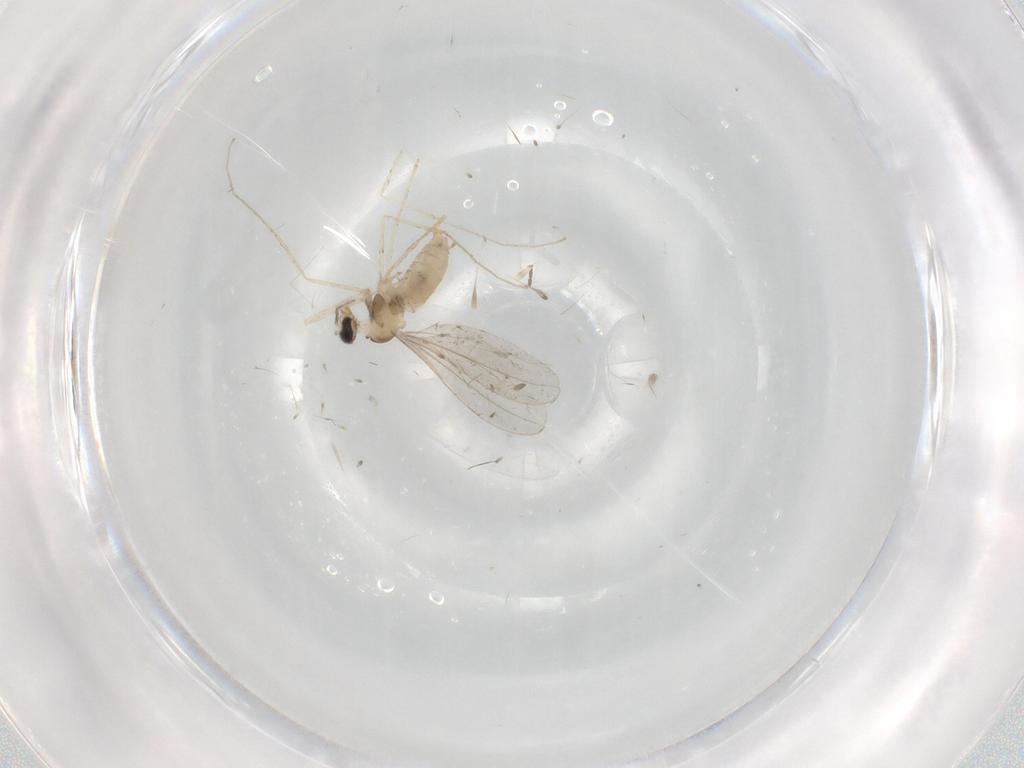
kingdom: Animalia
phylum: Arthropoda
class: Insecta
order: Diptera
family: Cecidomyiidae
